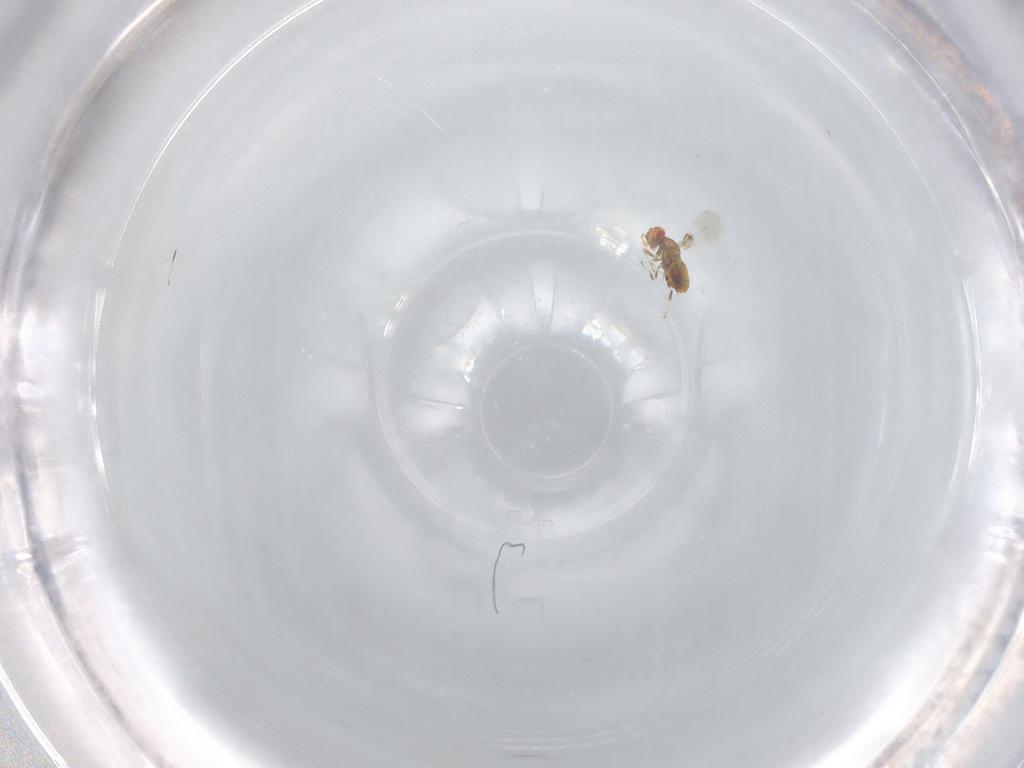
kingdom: Animalia
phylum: Arthropoda
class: Insecta
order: Hymenoptera
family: Trichogrammatidae
